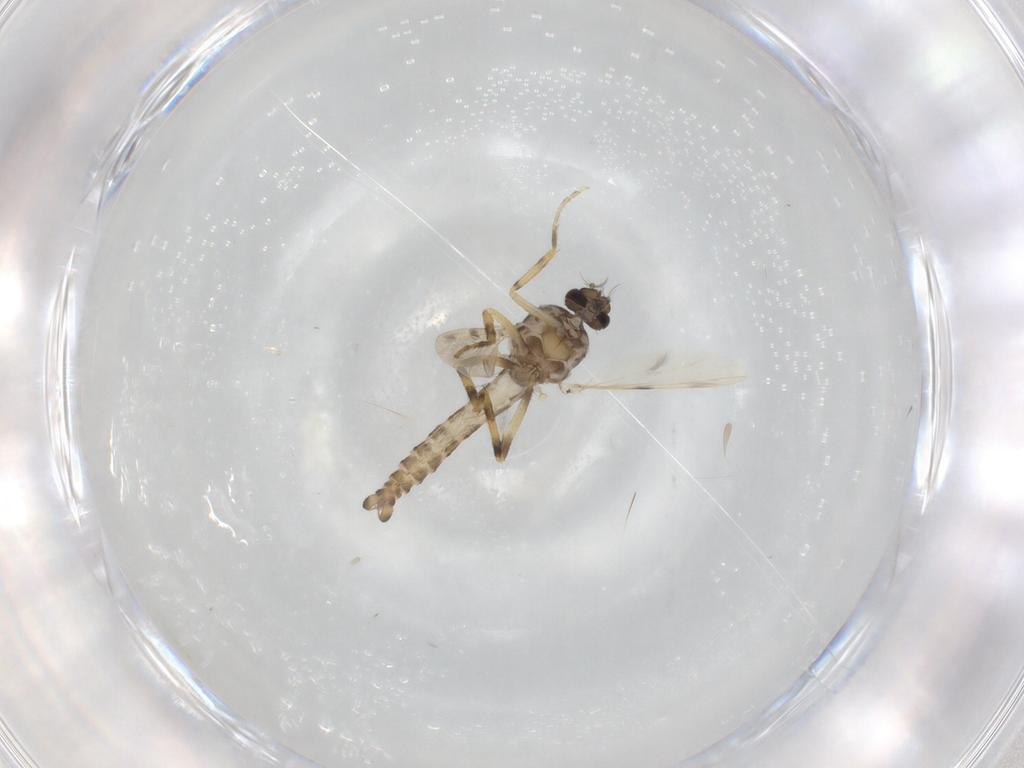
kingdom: Animalia
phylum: Arthropoda
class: Insecta
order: Diptera
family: Ceratopogonidae
